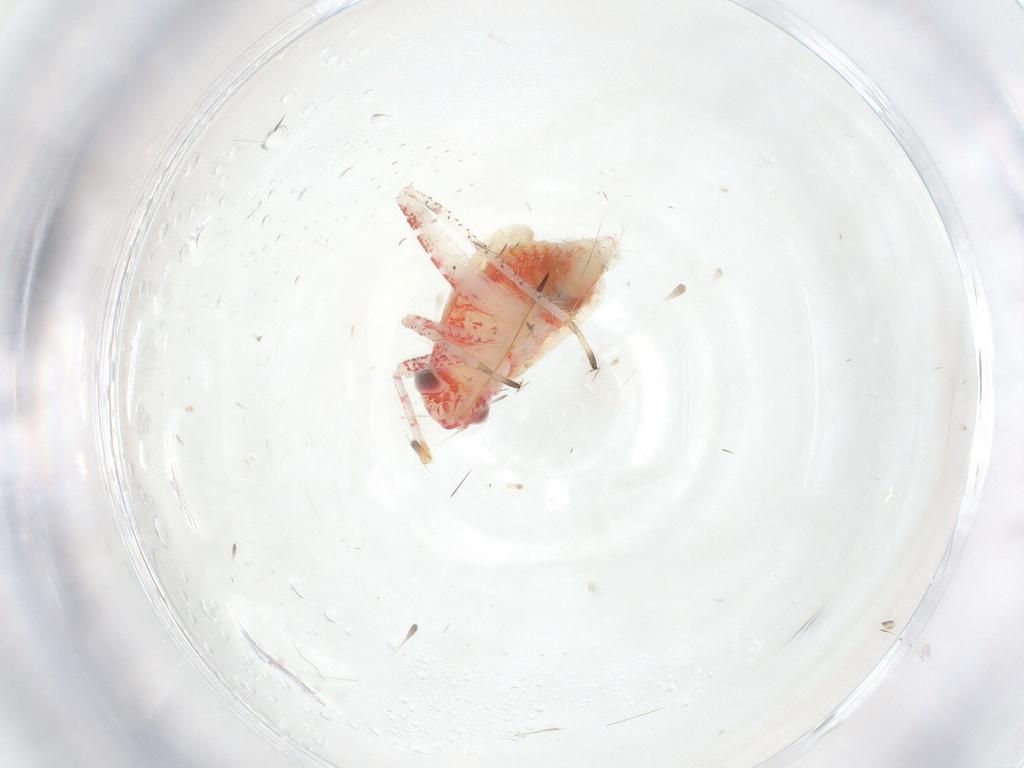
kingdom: Animalia
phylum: Arthropoda
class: Insecta
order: Hemiptera
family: Miridae
